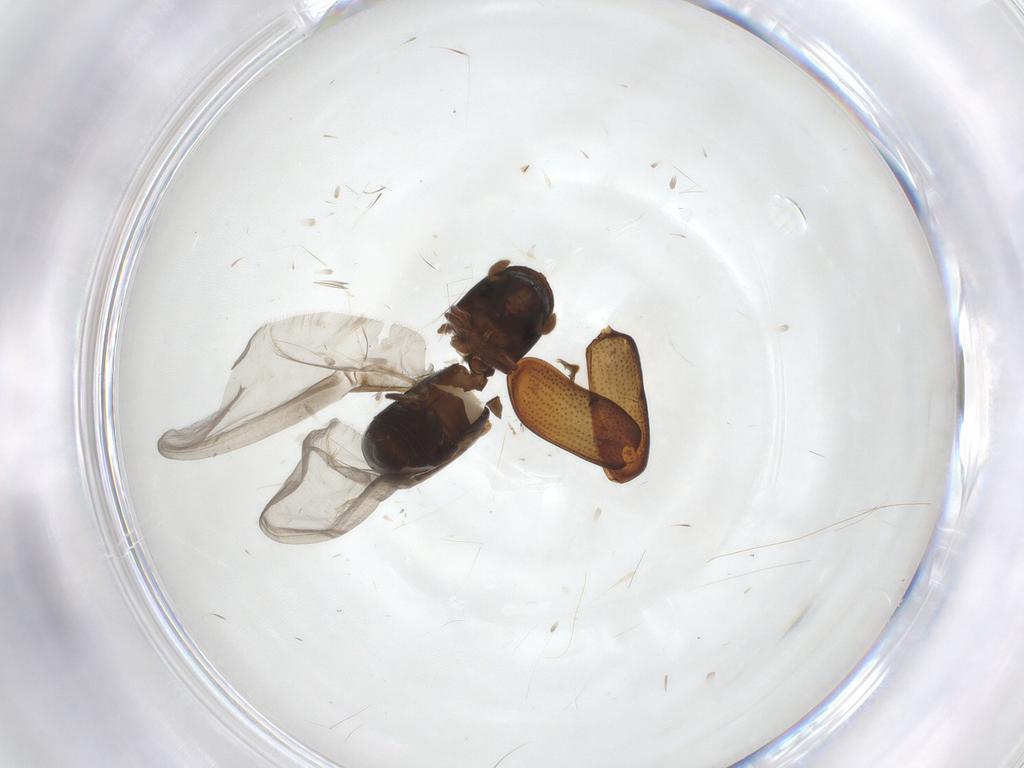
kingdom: Animalia
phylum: Arthropoda
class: Insecta
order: Coleoptera
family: Curculionidae
